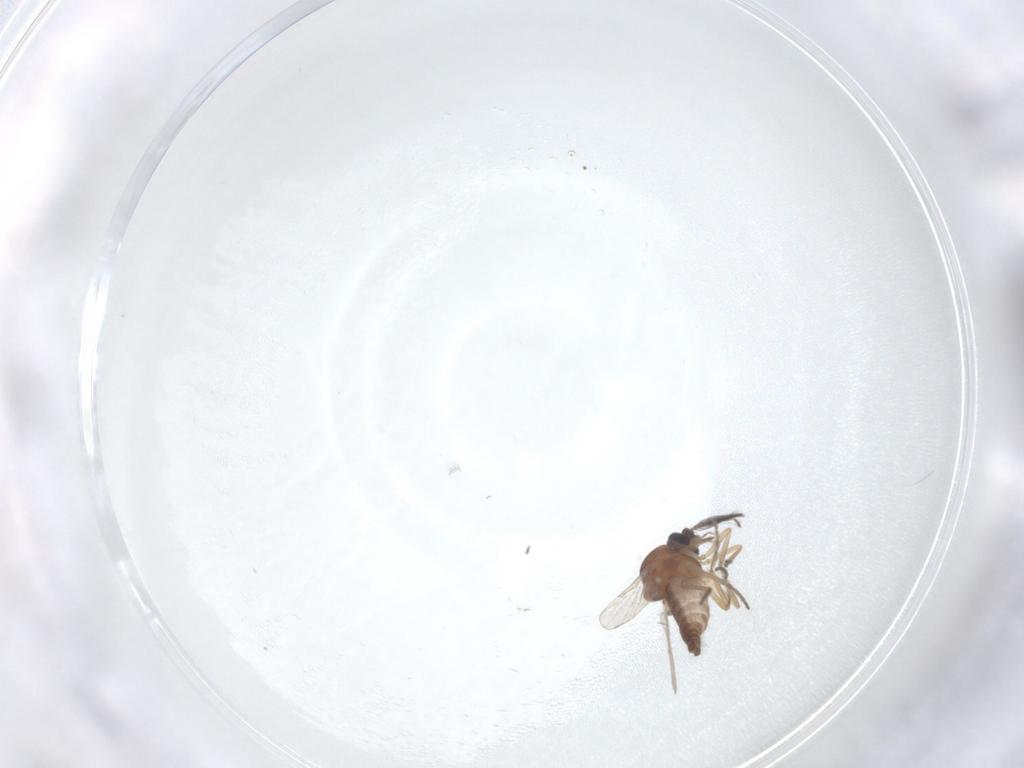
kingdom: Animalia
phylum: Arthropoda
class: Insecta
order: Diptera
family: Ceratopogonidae
